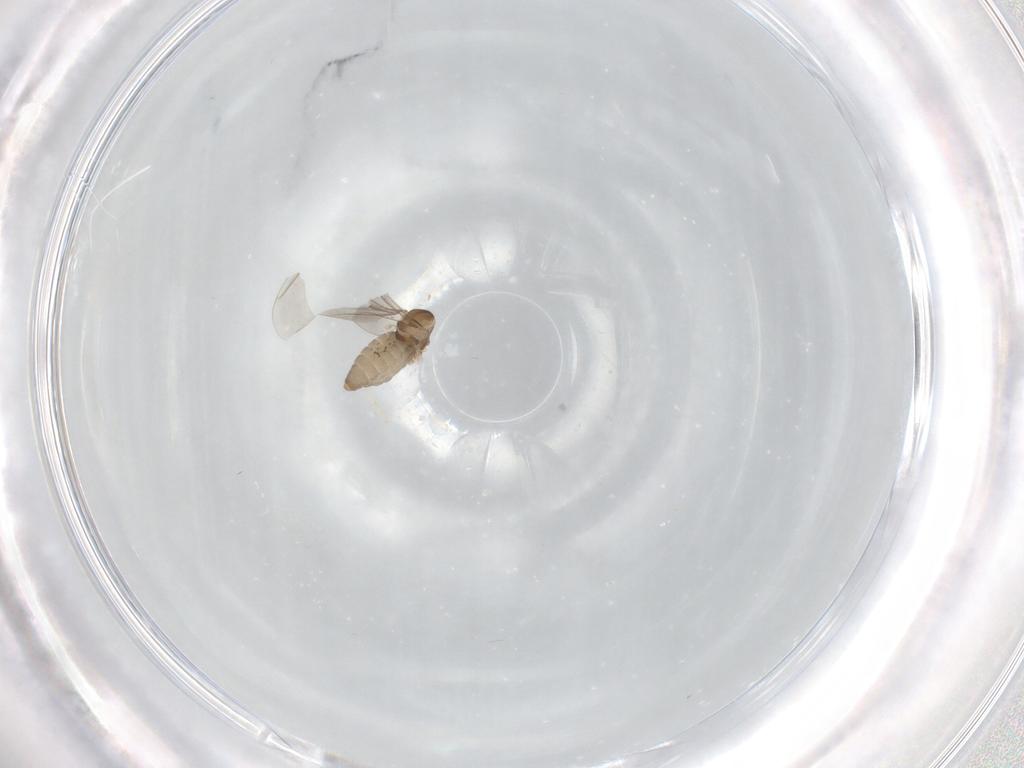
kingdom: Animalia
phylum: Arthropoda
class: Insecta
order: Diptera
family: Cecidomyiidae
